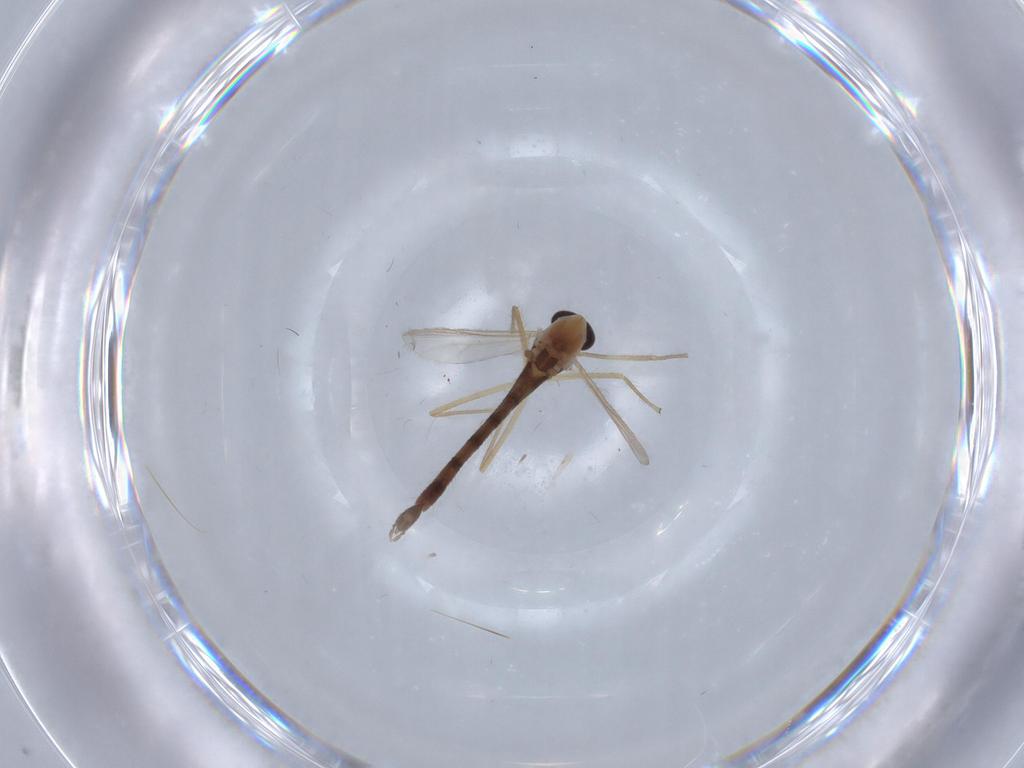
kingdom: Animalia
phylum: Arthropoda
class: Insecta
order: Diptera
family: Chironomidae
